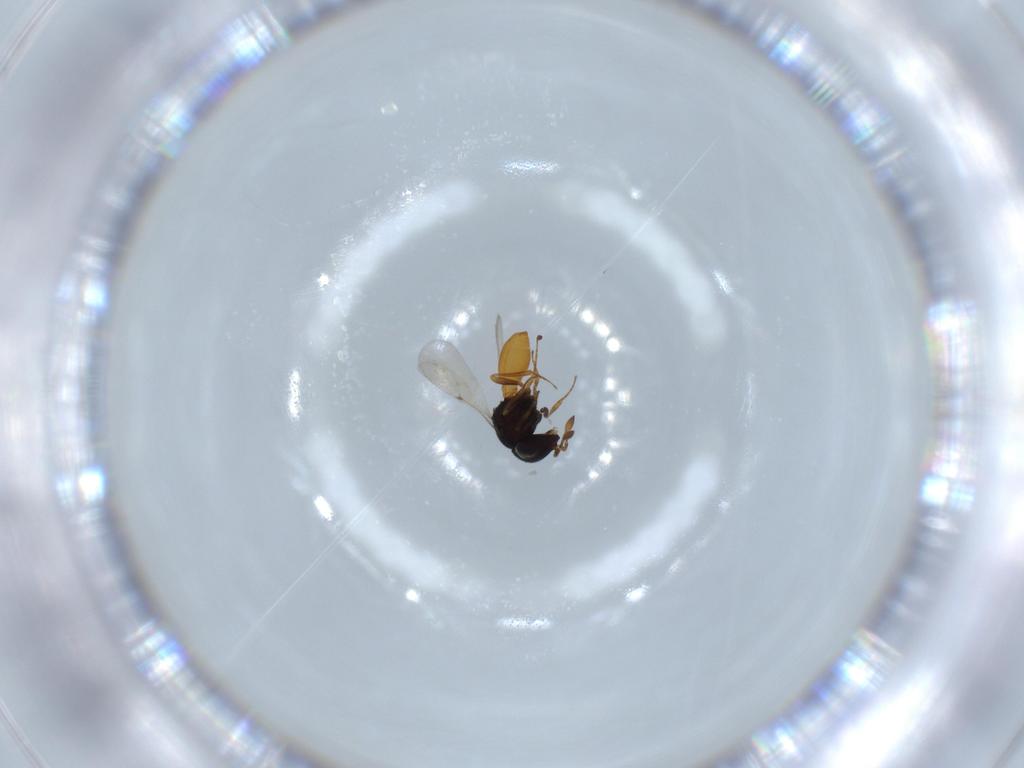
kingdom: Animalia
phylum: Arthropoda
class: Insecta
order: Hymenoptera
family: Scelionidae
